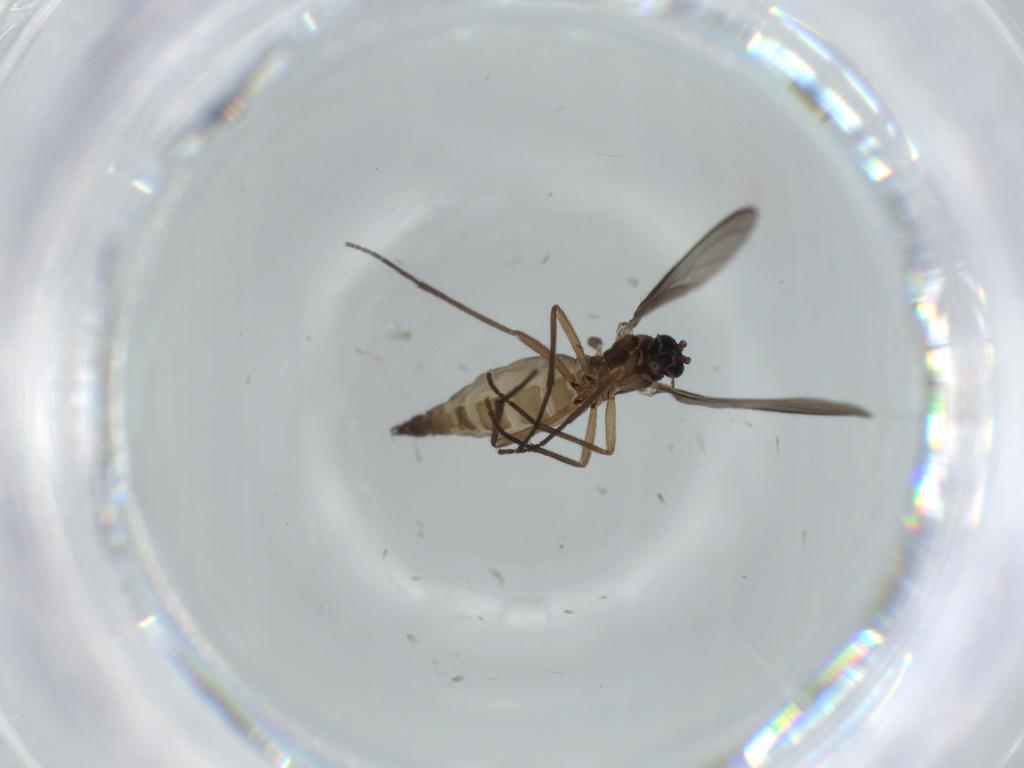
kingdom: Animalia
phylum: Arthropoda
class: Insecta
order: Diptera
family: Sciaridae
